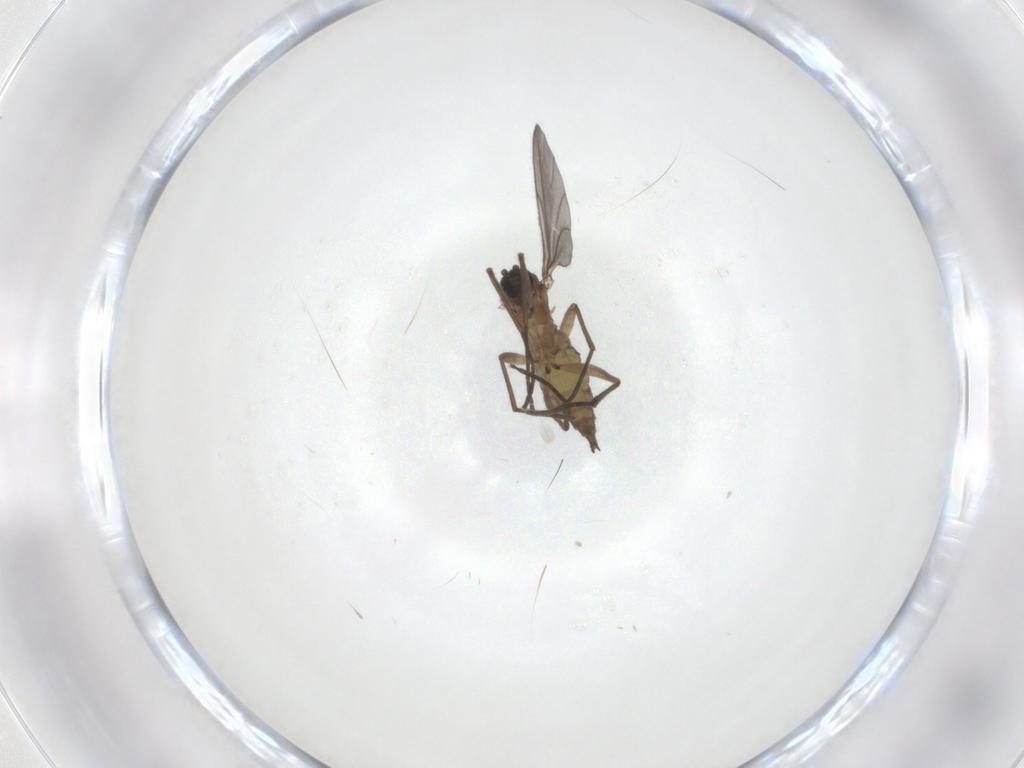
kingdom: Animalia
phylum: Arthropoda
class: Insecta
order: Diptera
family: Sciaridae
